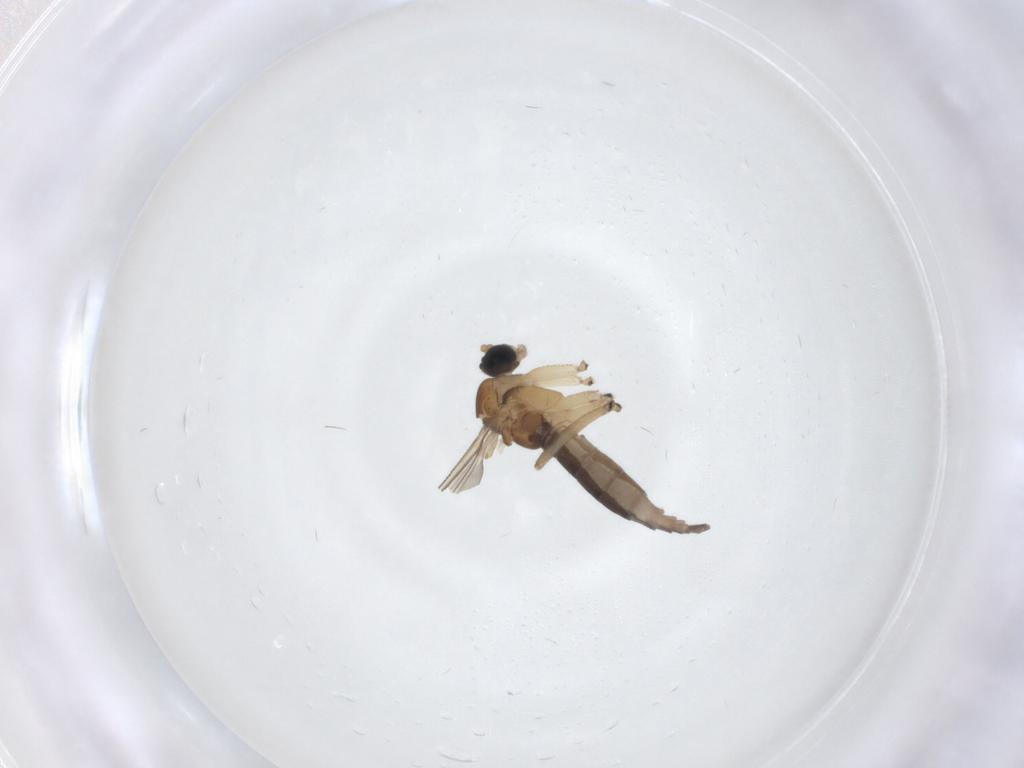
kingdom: Animalia
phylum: Arthropoda
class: Insecta
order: Diptera
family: Sciaridae
